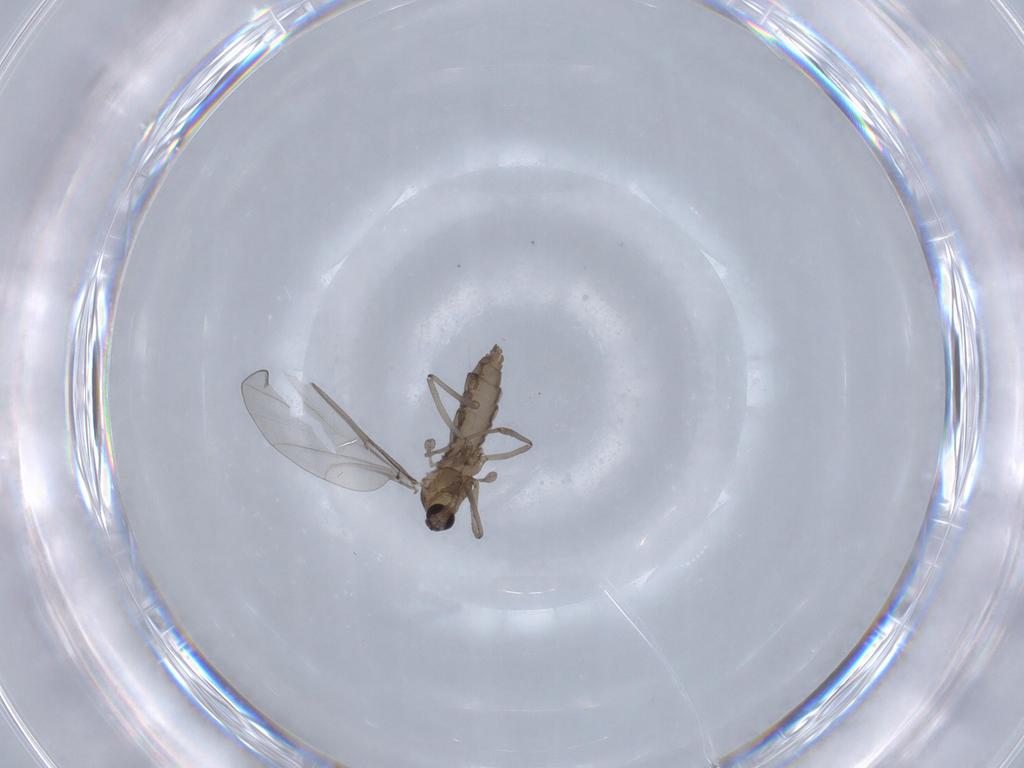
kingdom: Animalia
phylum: Arthropoda
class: Insecta
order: Diptera
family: Cecidomyiidae
